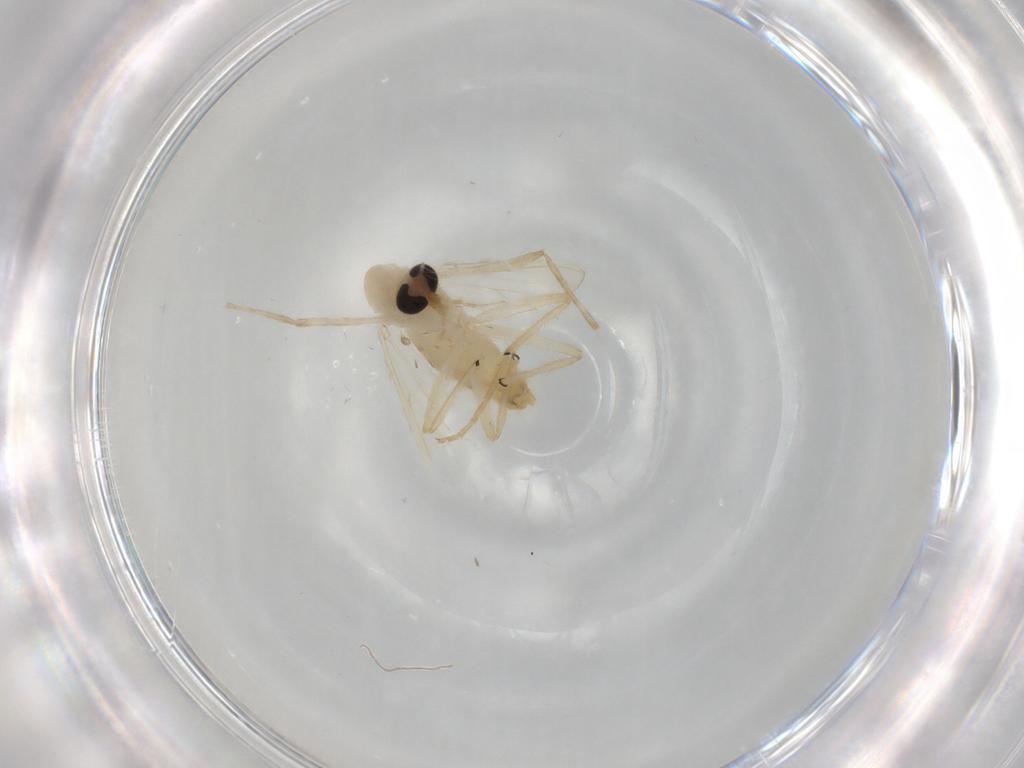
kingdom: Animalia
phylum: Arthropoda
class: Insecta
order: Diptera
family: Chironomidae
